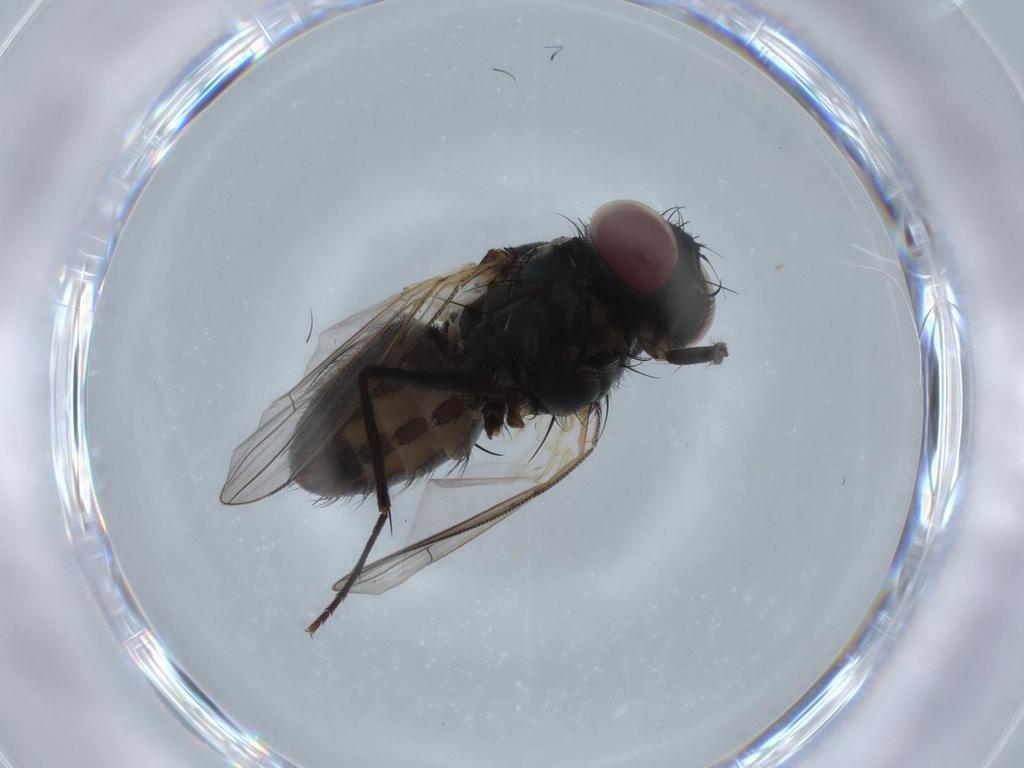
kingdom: Animalia
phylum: Arthropoda
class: Insecta
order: Diptera
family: Muscidae
